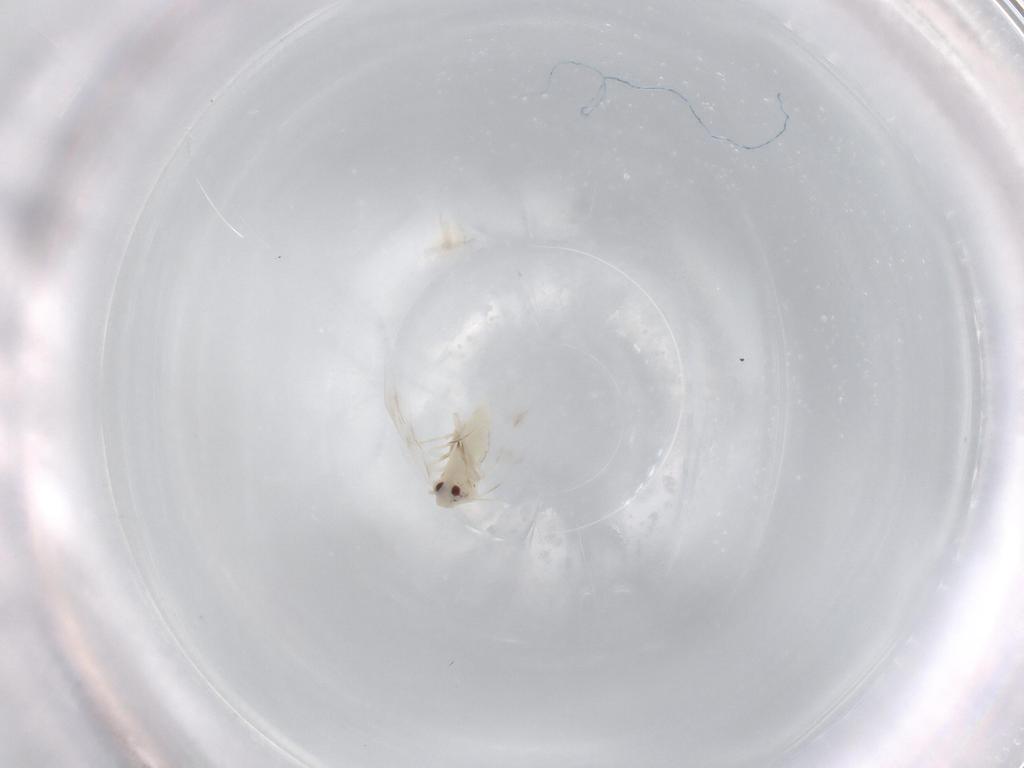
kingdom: Animalia
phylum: Arthropoda
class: Insecta
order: Hemiptera
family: Aleyrodidae
